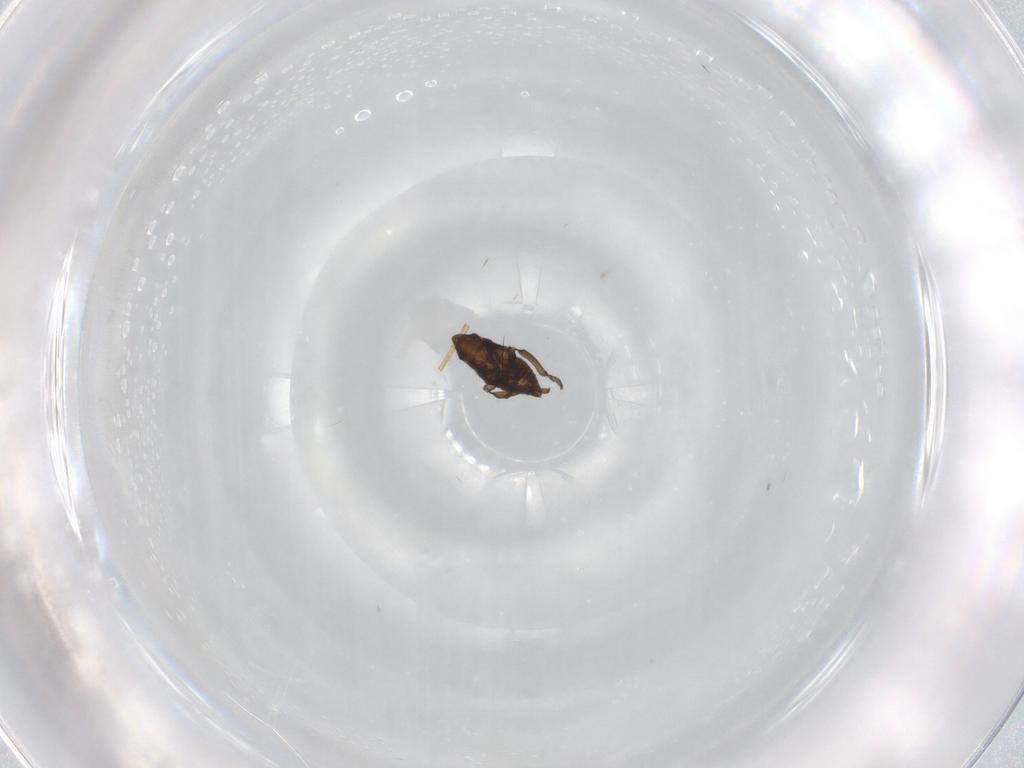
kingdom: Animalia
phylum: Arthropoda
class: Insecta
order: Hemiptera
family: Cicadellidae
